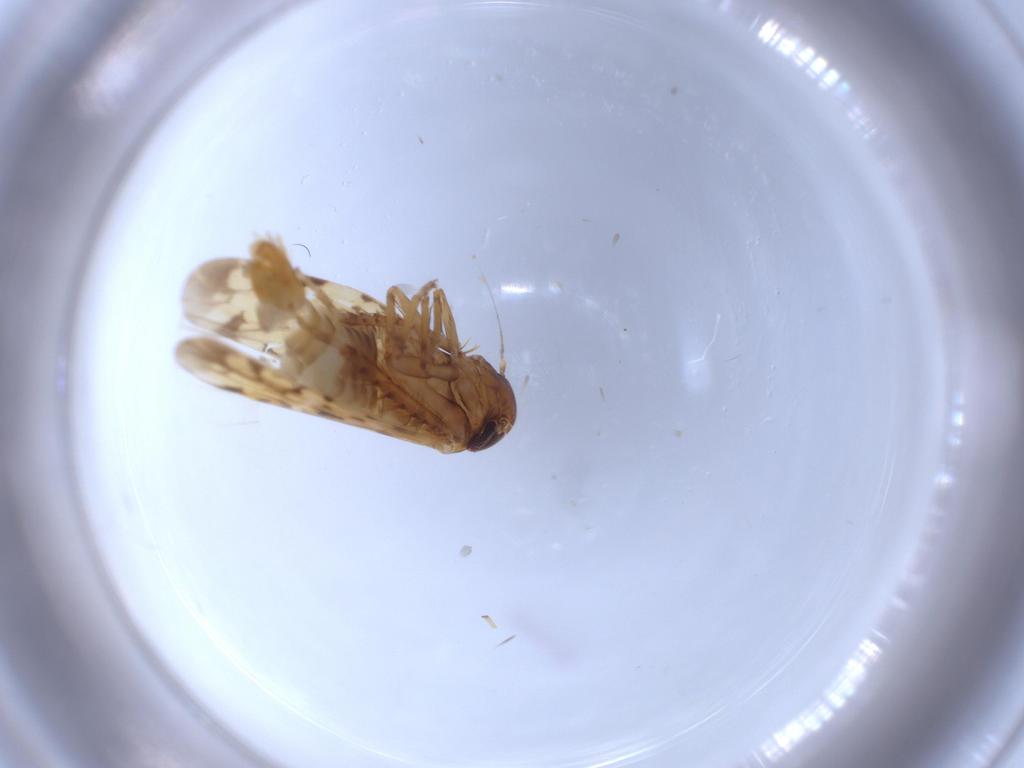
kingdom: Animalia
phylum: Arthropoda
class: Insecta
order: Hemiptera
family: Cicadellidae
